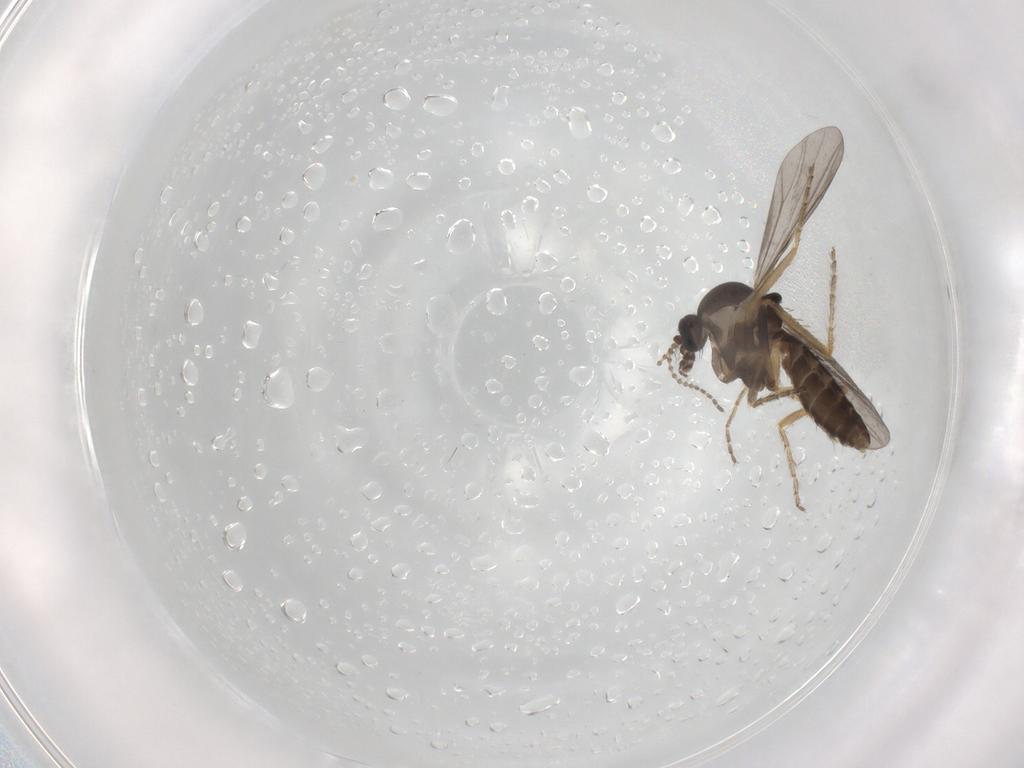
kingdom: Animalia
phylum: Arthropoda
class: Insecta
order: Diptera
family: Ceratopogonidae
